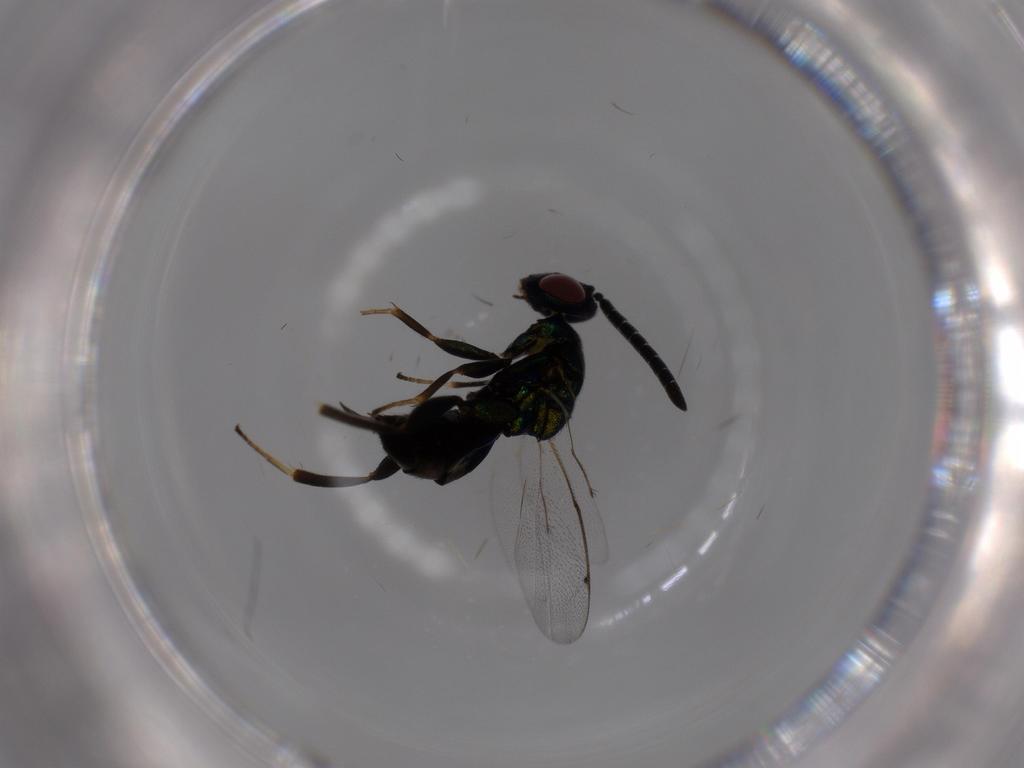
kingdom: Animalia
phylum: Arthropoda
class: Insecta
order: Hymenoptera
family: Torymidae
